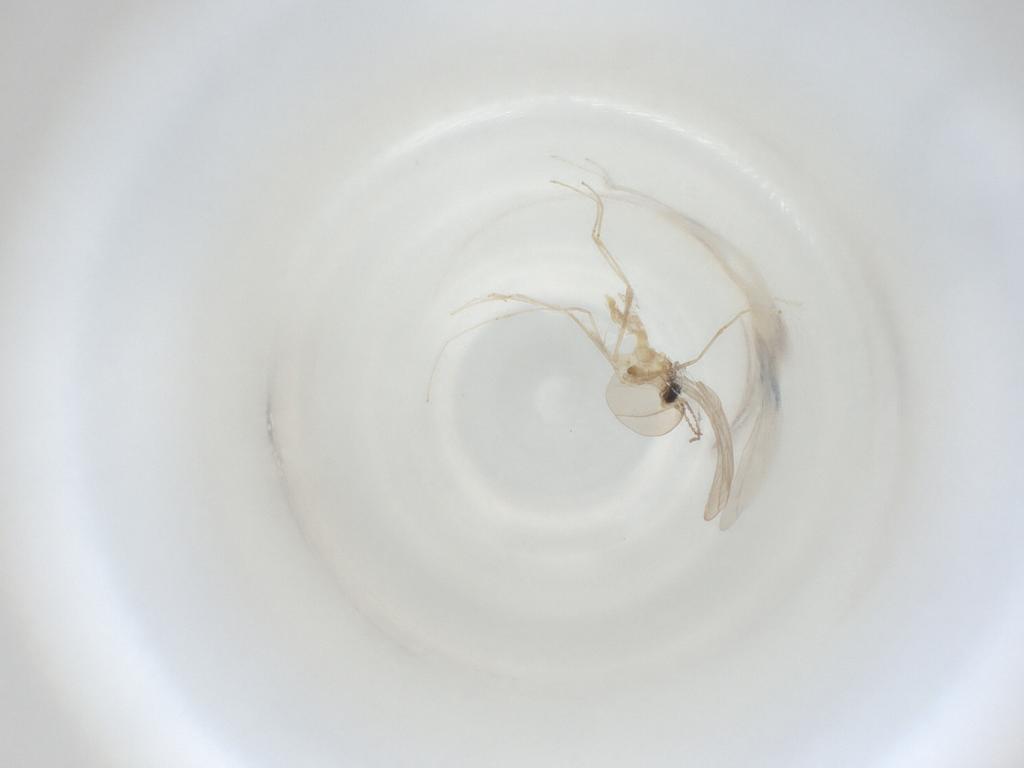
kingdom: Animalia
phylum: Arthropoda
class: Insecta
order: Diptera
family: Cecidomyiidae
